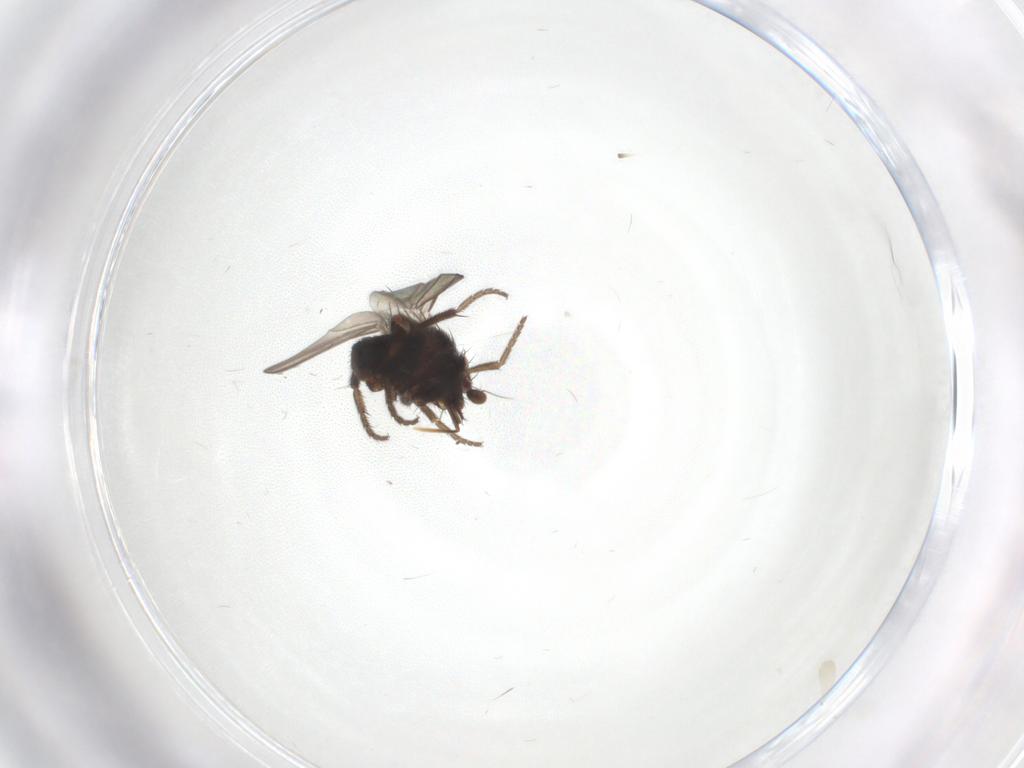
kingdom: Animalia
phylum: Arthropoda
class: Insecta
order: Diptera
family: Milichiidae
